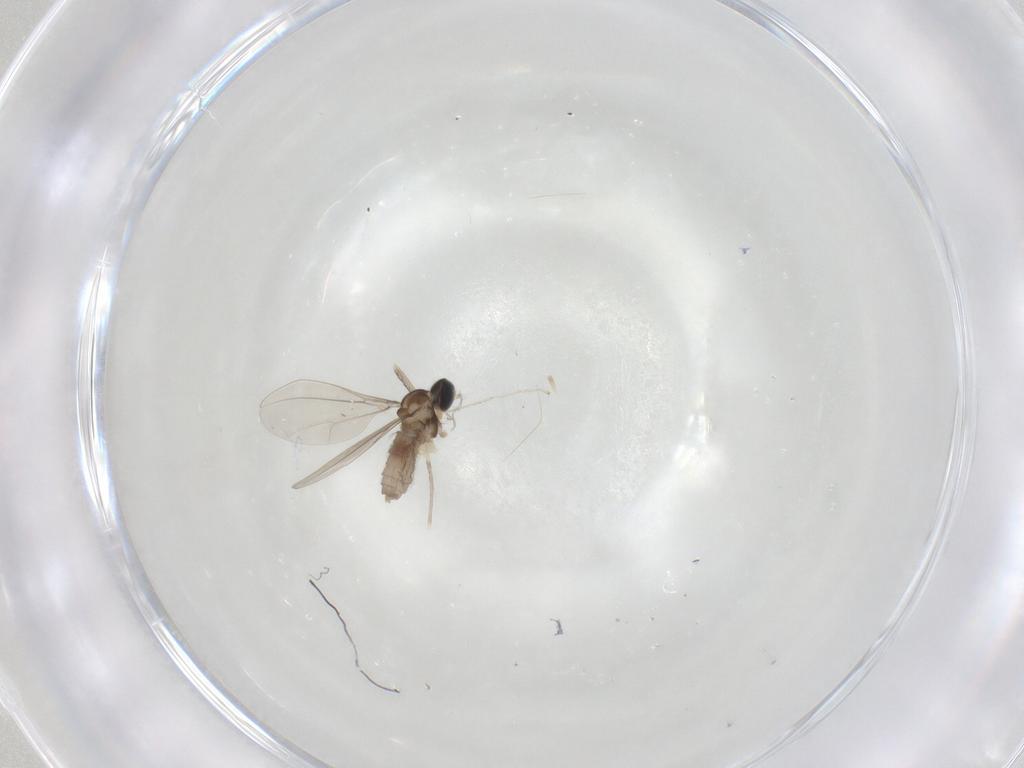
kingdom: Animalia
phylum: Arthropoda
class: Insecta
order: Diptera
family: Cecidomyiidae
